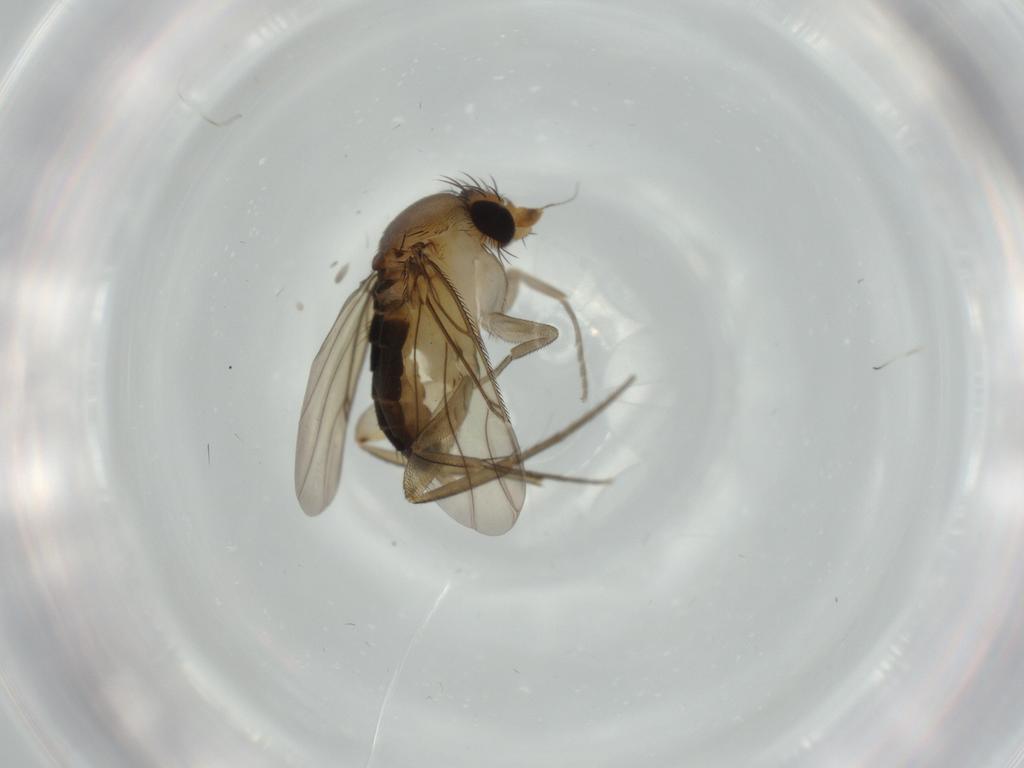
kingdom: Animalia
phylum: Arthropoda
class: Insecta
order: Diptera
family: Phoridae
